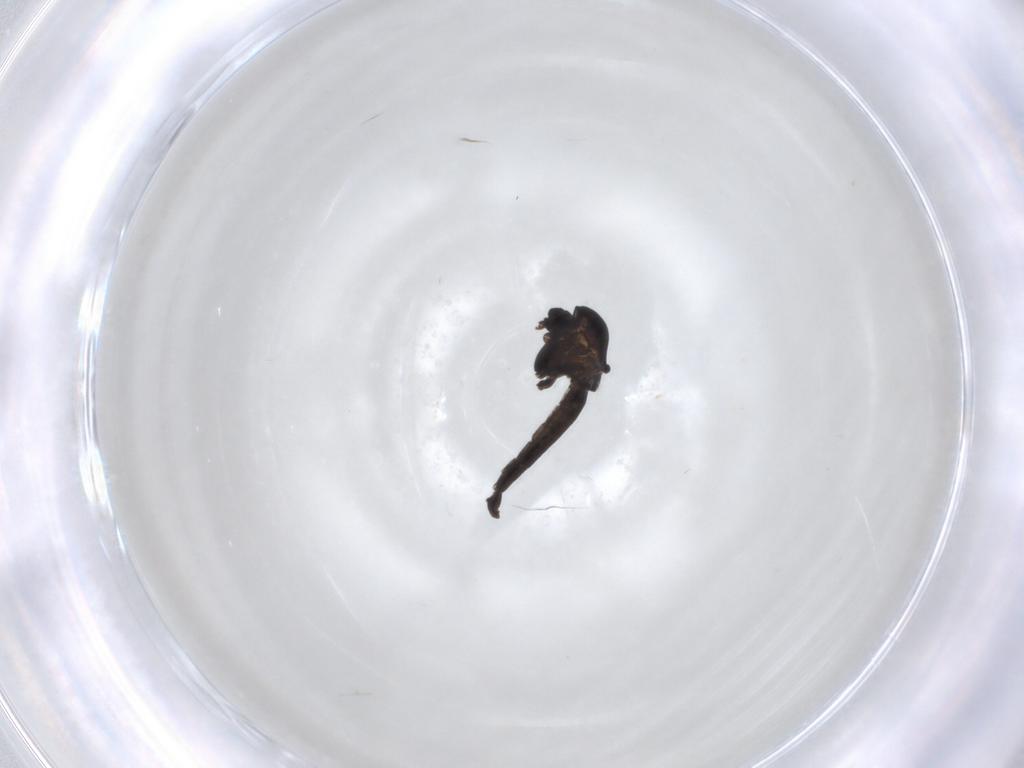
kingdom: Animalia
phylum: Arthropoda
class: Insecta
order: Diptera
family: Chironomidae
